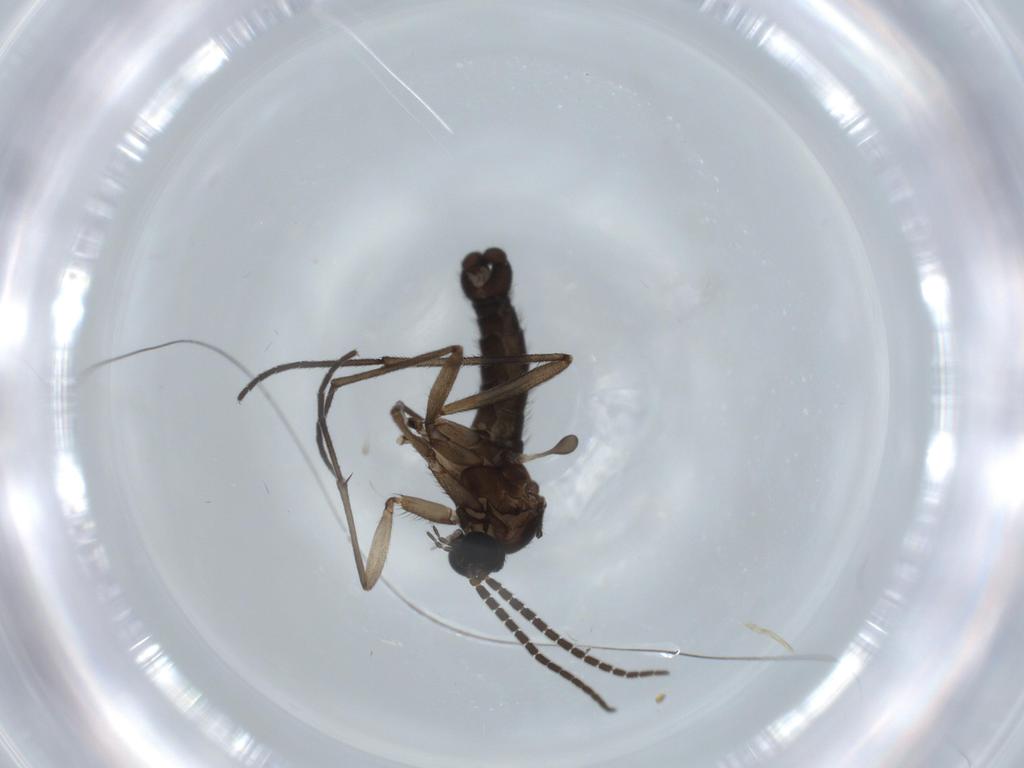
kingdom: Animalia
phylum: Arthropoda
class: Insecta
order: Diptera
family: Sciaridae
